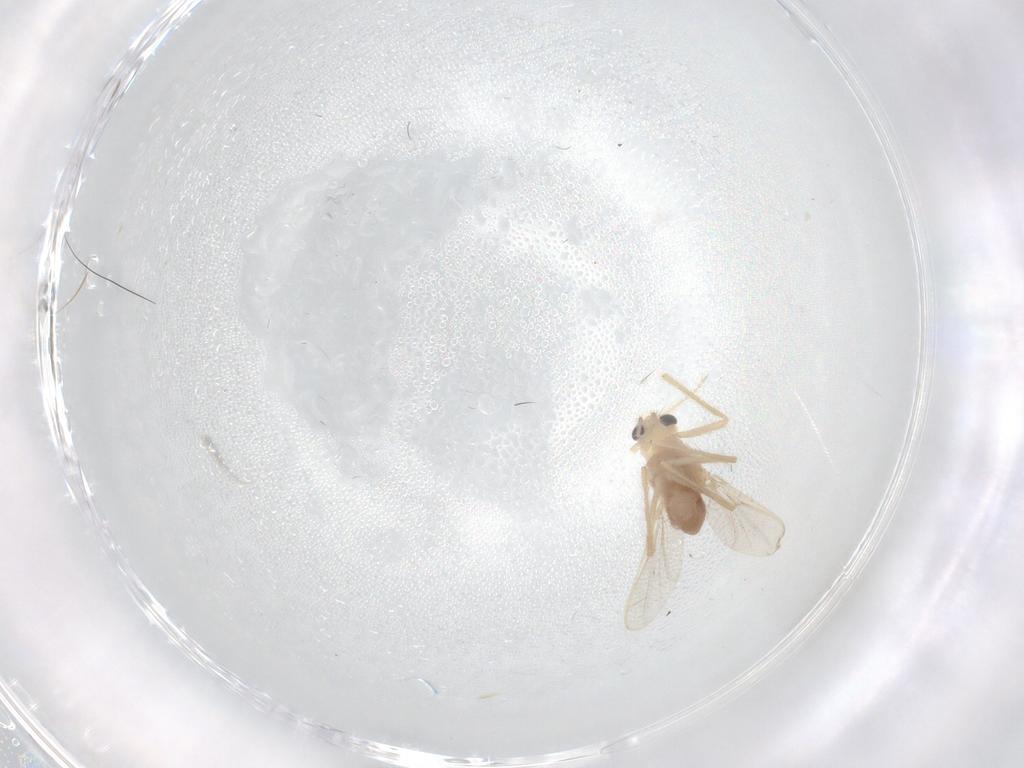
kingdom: Animalia
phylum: Arthropoda
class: Insecta
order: Diptera
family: Chironomidae
